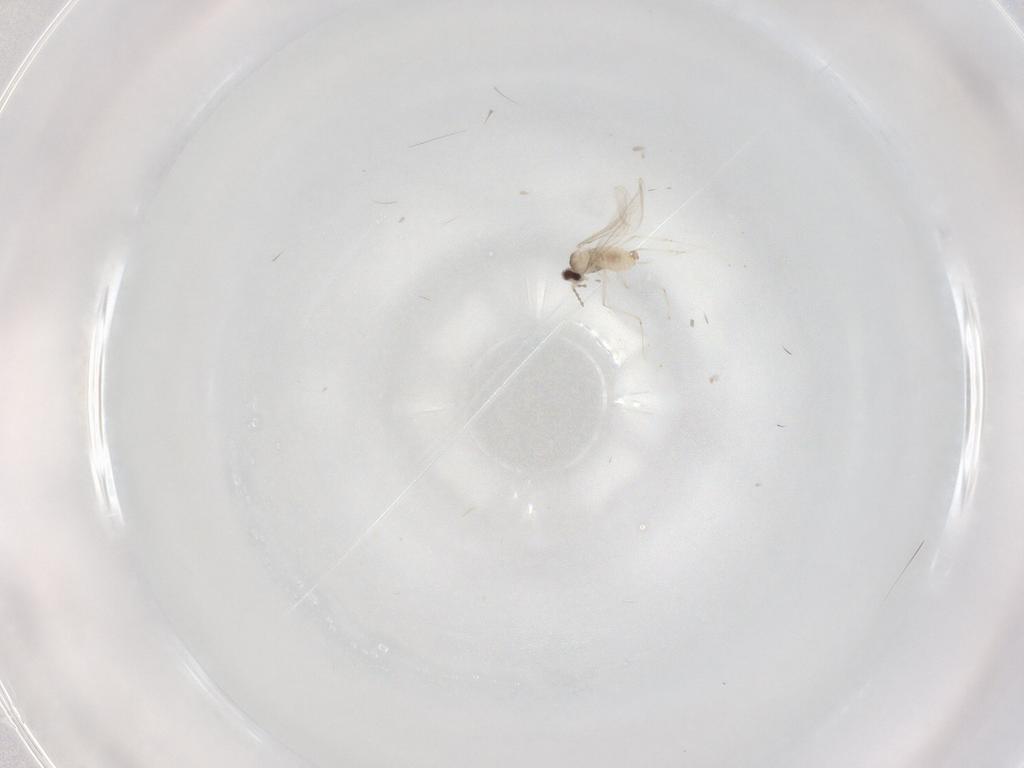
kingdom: Animalia
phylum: Arthropoda
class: Insecta
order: Diptera
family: Cecidomyiidae
